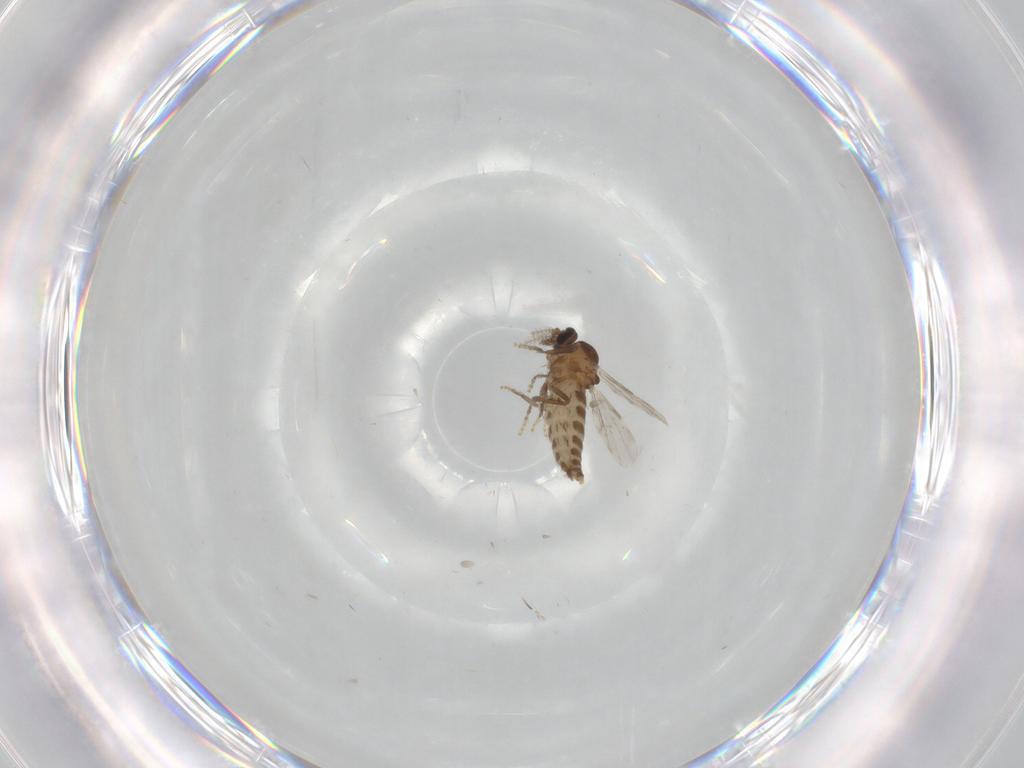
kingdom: Animalia
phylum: Arthropoda
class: Insecta
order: Diptera
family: Ceratopogonidae
